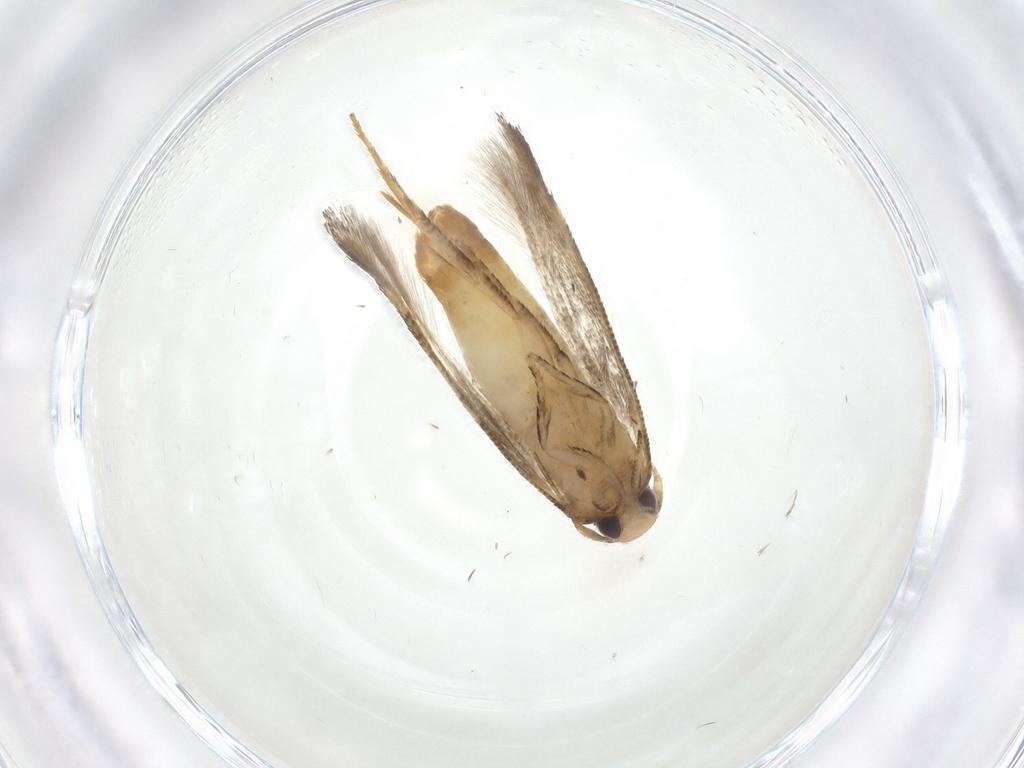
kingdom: Animalia
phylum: Arthropoda
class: Insecta
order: Lepidoptera
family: Gelechiidae
